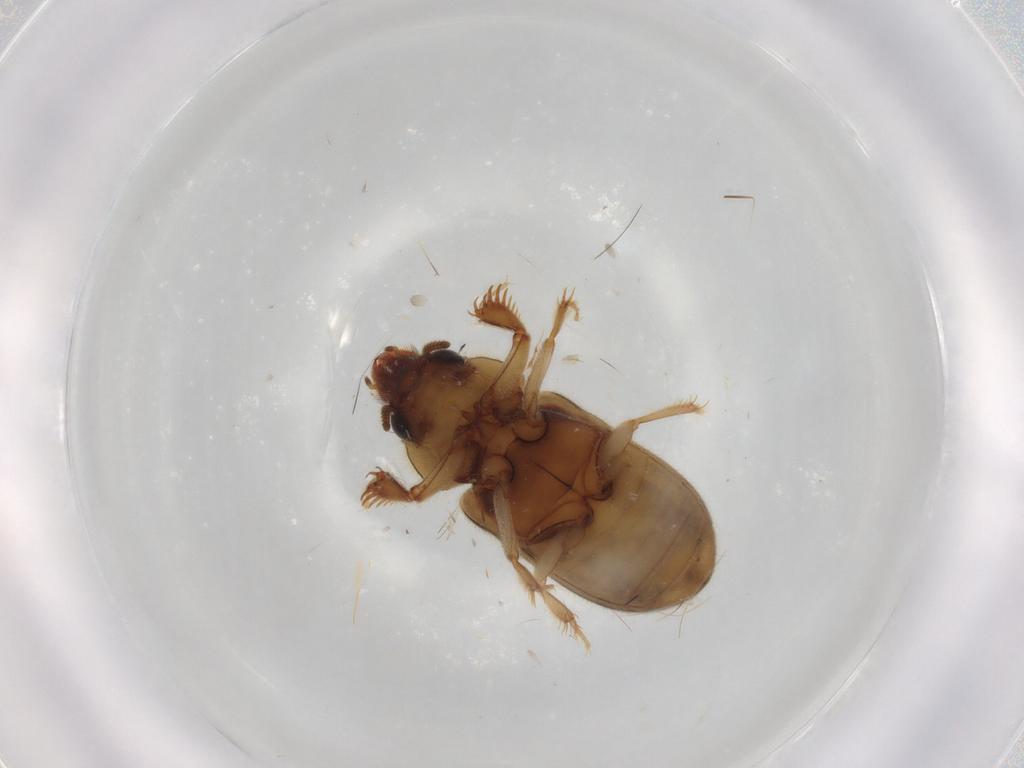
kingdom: Animalia
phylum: Arthropoda
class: Insecta
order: Coleoptera
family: Heteroceridae
